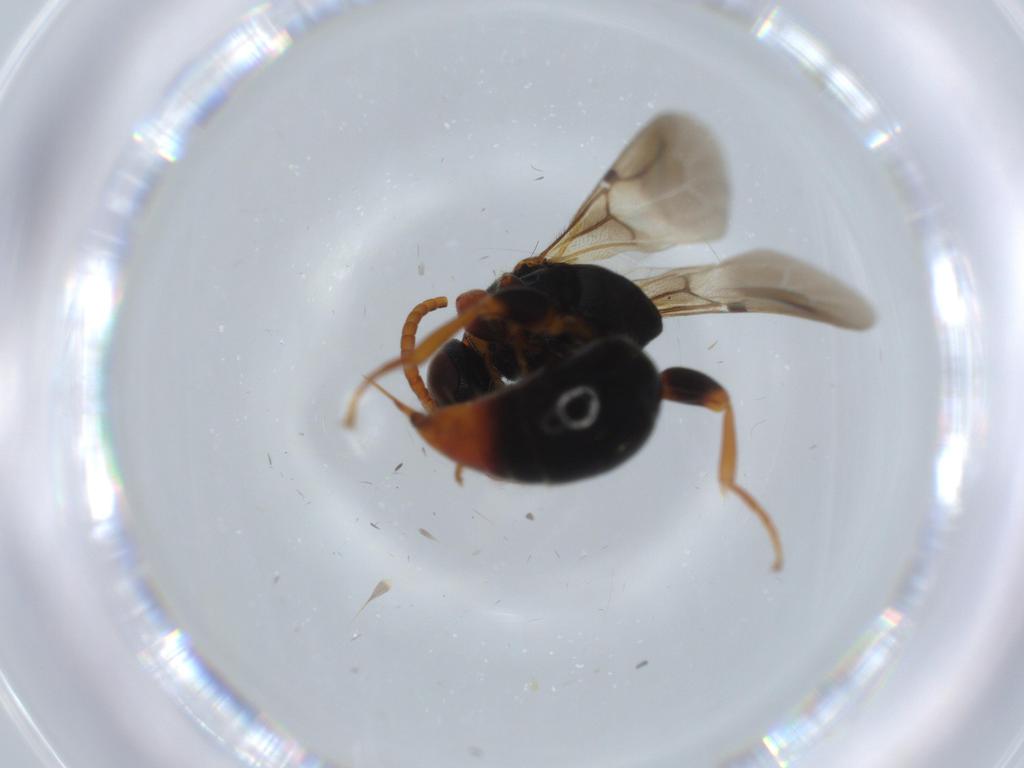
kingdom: Animalia
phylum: Arthropoda
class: Insecta
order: Hymenoptera
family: Bethylidae
